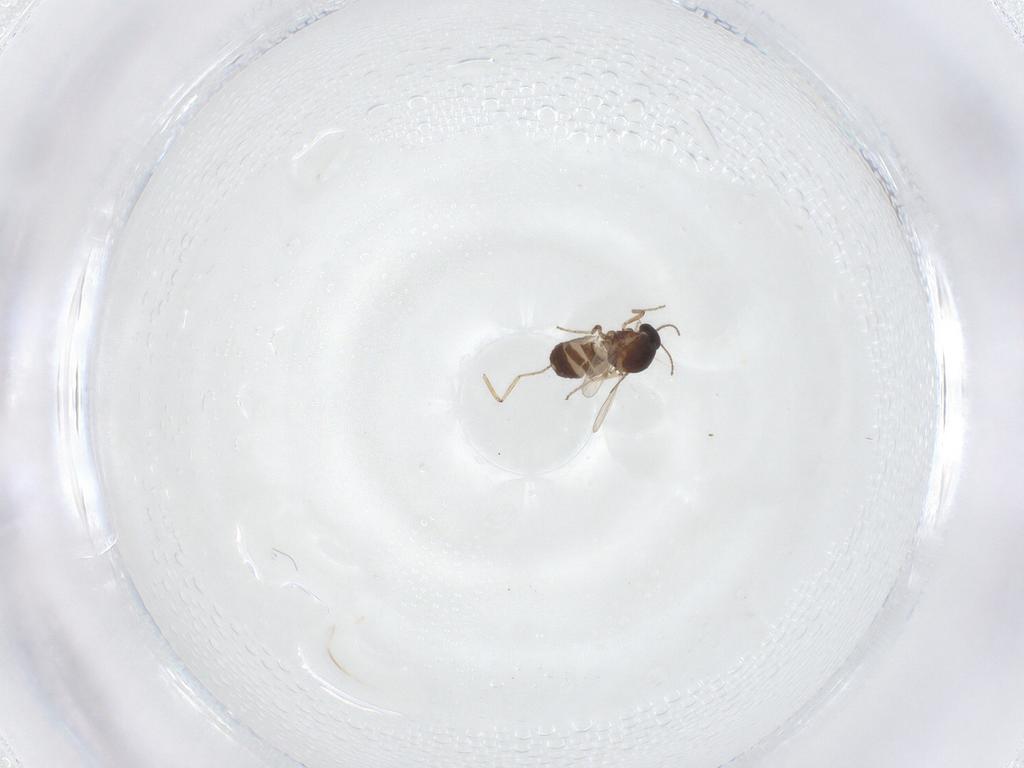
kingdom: Animalia
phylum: Arthropoda
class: Insecta
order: Diptera
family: Ceratopogonidae
